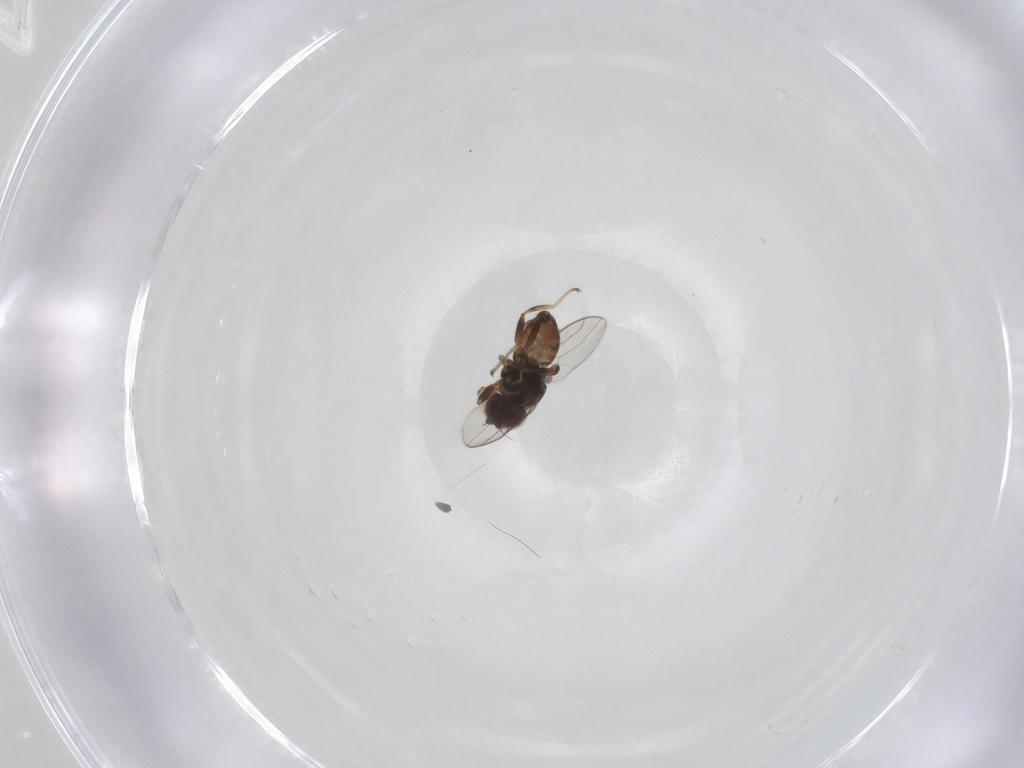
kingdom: Animalia
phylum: Arthropoda
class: Insecta
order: Diptera
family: Chloropidae
